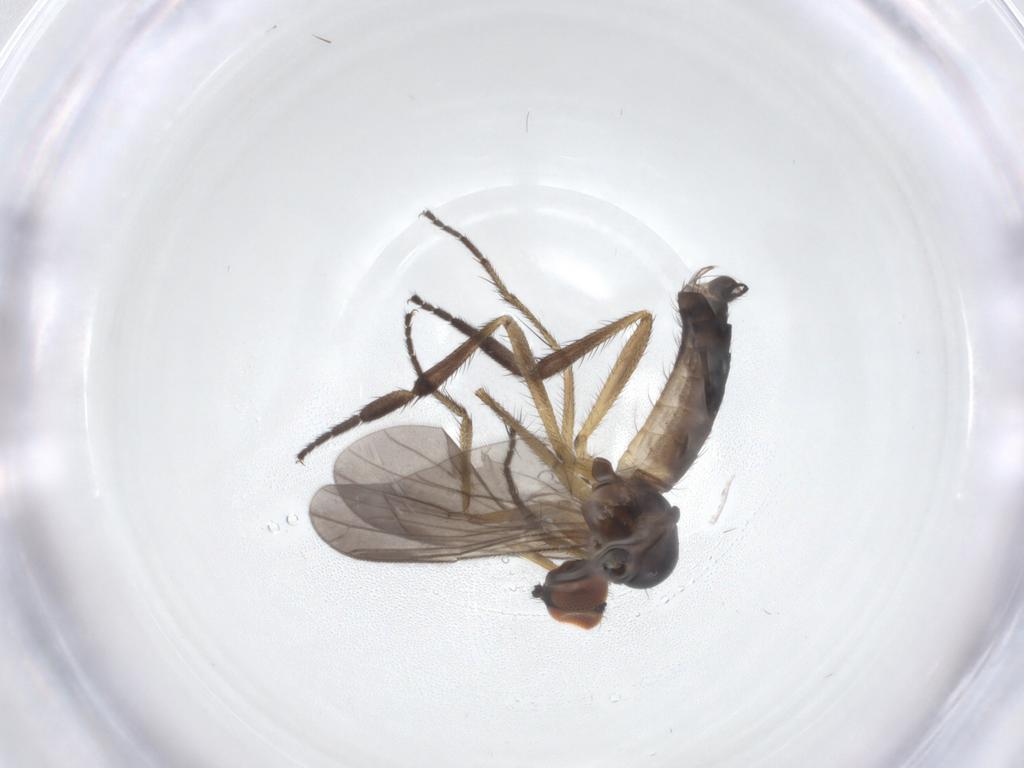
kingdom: Animalia
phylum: Arthropoda
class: Insecta
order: Diptera
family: Empididae
